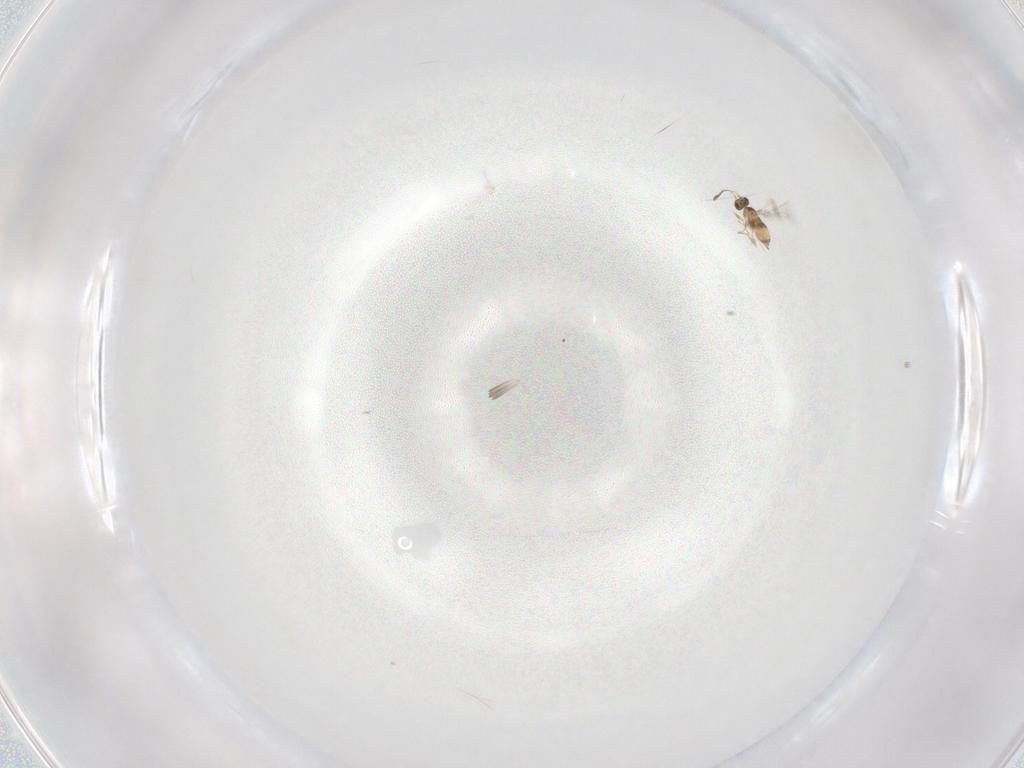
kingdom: Animalia
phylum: Arthropoda
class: Insecta
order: Hymenoptera
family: Mymaridae
